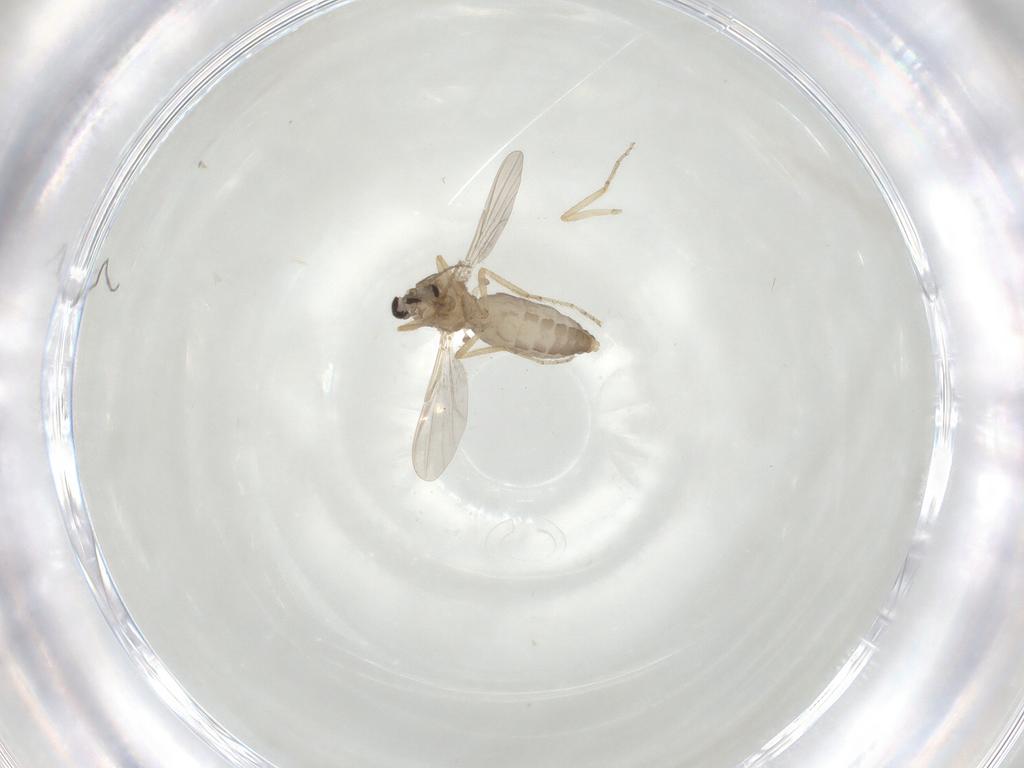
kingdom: Animalia
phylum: Arthropoda
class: Insecta
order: Diptera
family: Ceratopogonidae
